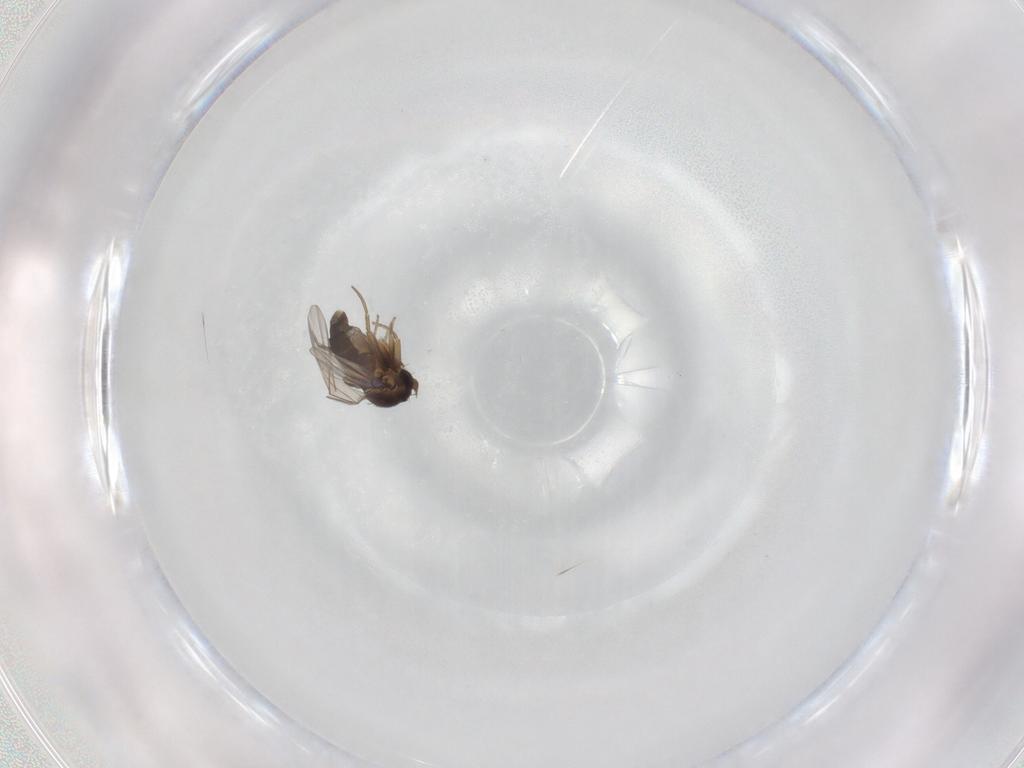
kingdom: Animalia
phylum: Arthropoda
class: Insecta
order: Diptera
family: Phoridae
